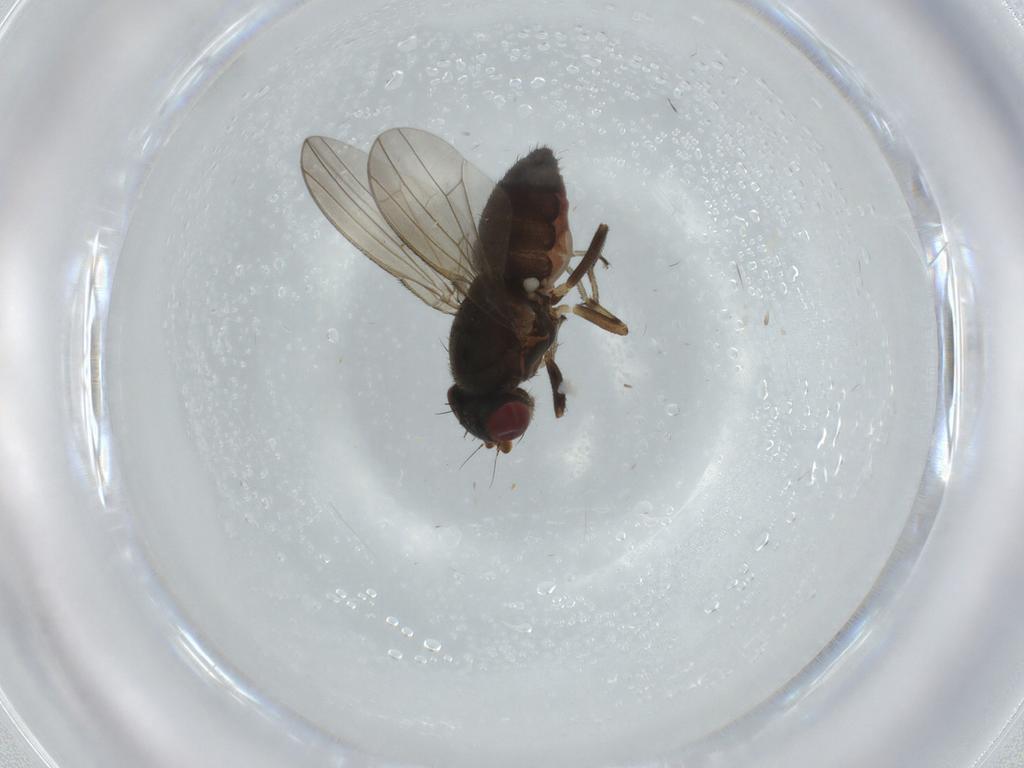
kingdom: Animalia
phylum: Arthropoda
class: Insecta
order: Diptera
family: Heleomyzidae
